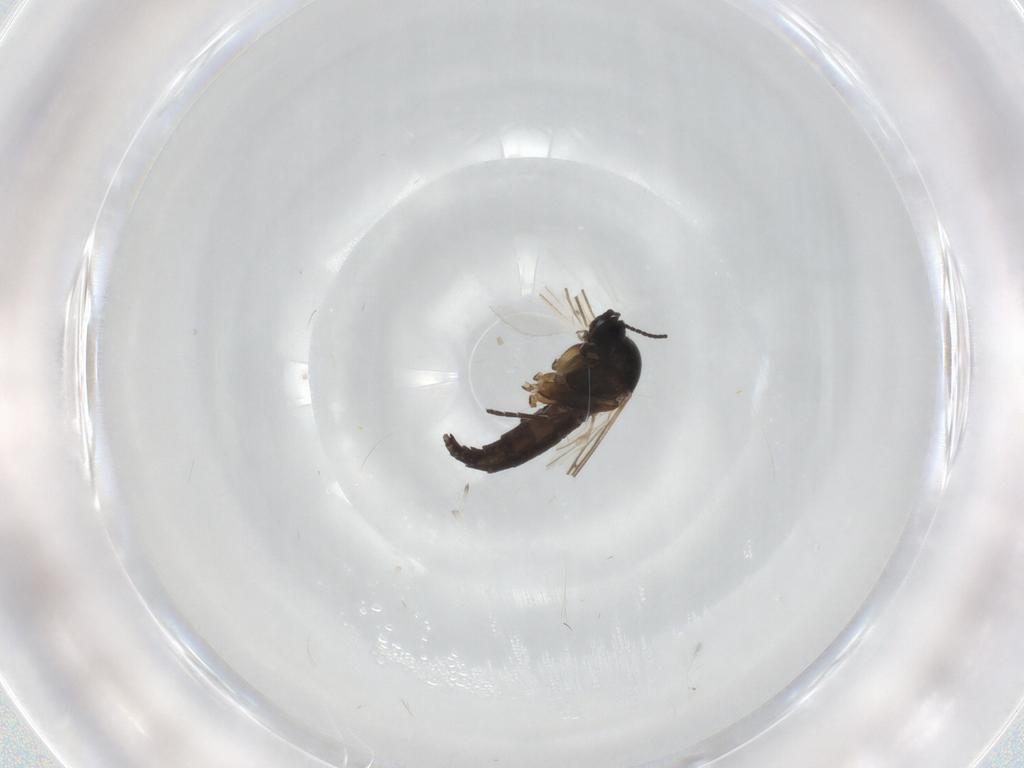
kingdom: Animalia
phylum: Arthropoda
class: Insecta
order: Diptera
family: Sciaridae
